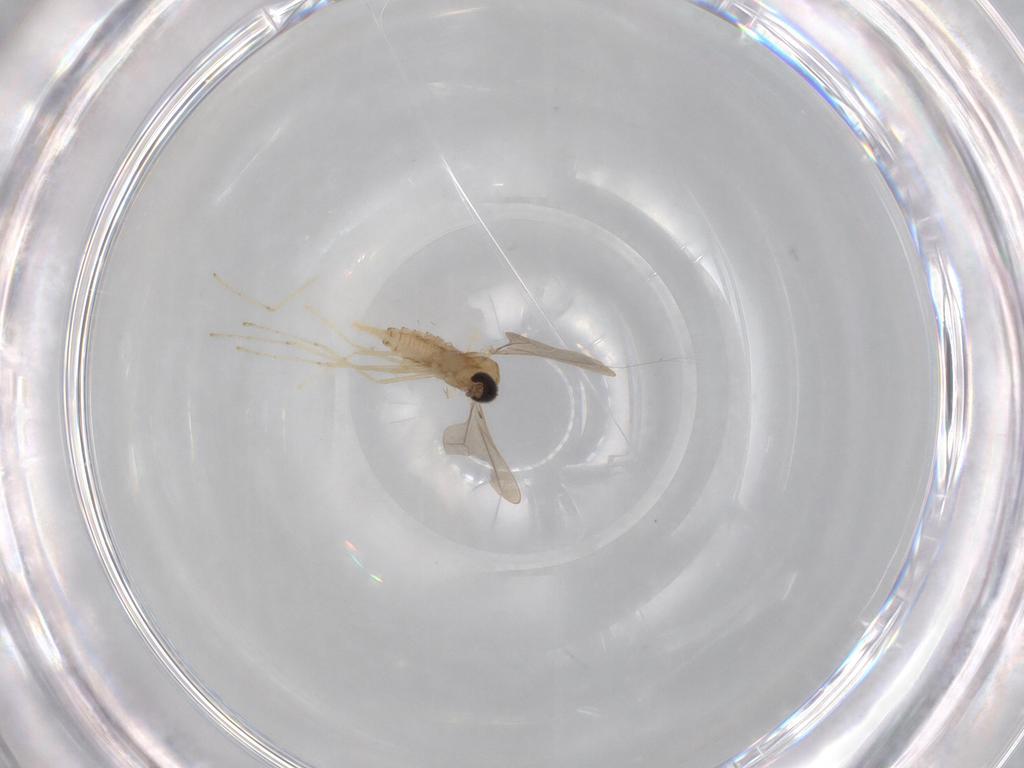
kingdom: Animalia
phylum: Arthropoda
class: Insecta
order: Diptera
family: Cecidomyiidae
